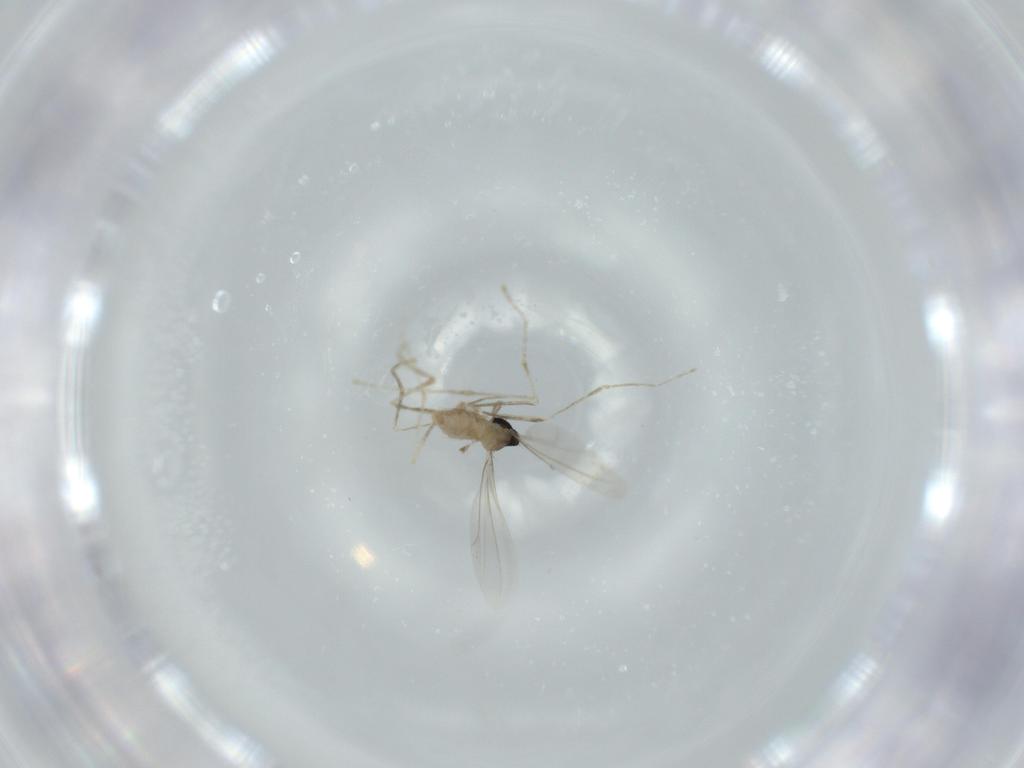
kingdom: Animalia
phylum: Arthropoda
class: Insecta
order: Diptera
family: Cecidomyiidae
